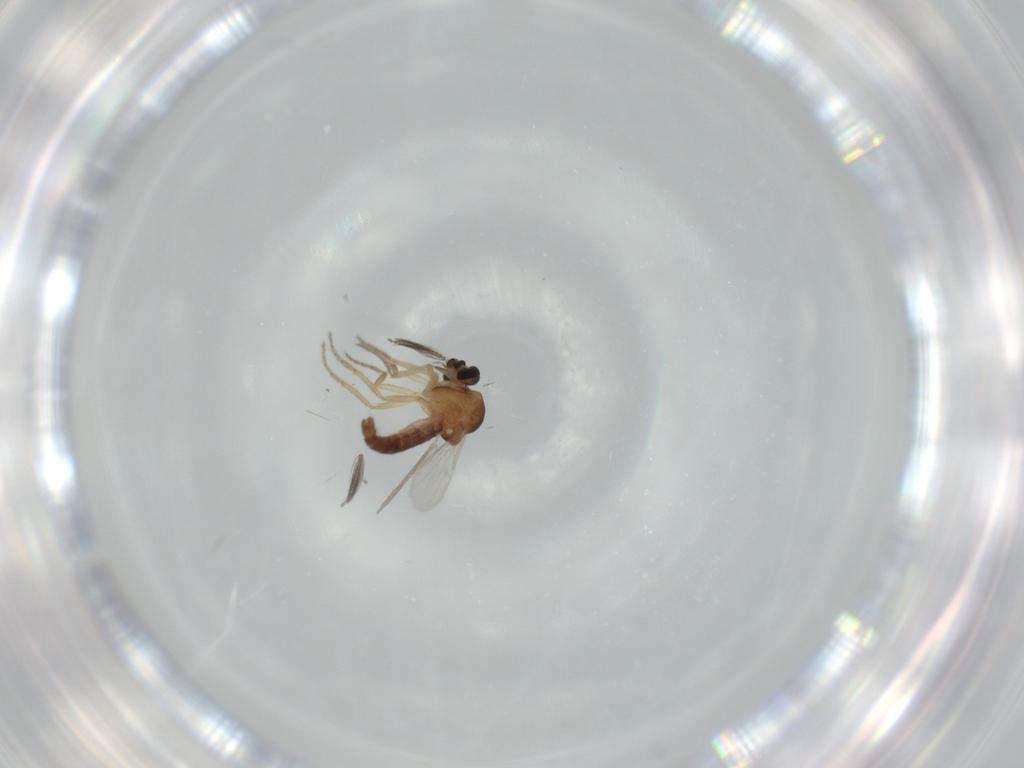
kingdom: Animalia
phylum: Arthropoda
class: Insecta
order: Diptera
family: Ceratopogonidae
